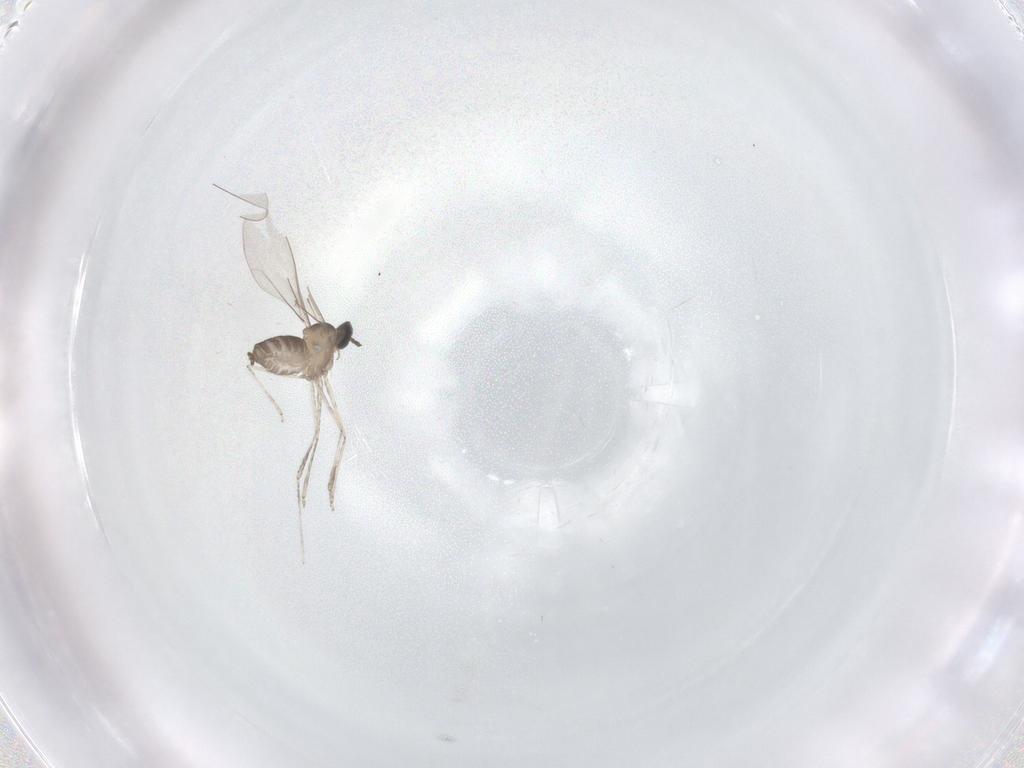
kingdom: Animalia
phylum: Arthropoda
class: Insecta
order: Diptera
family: Cecidomyiidae
